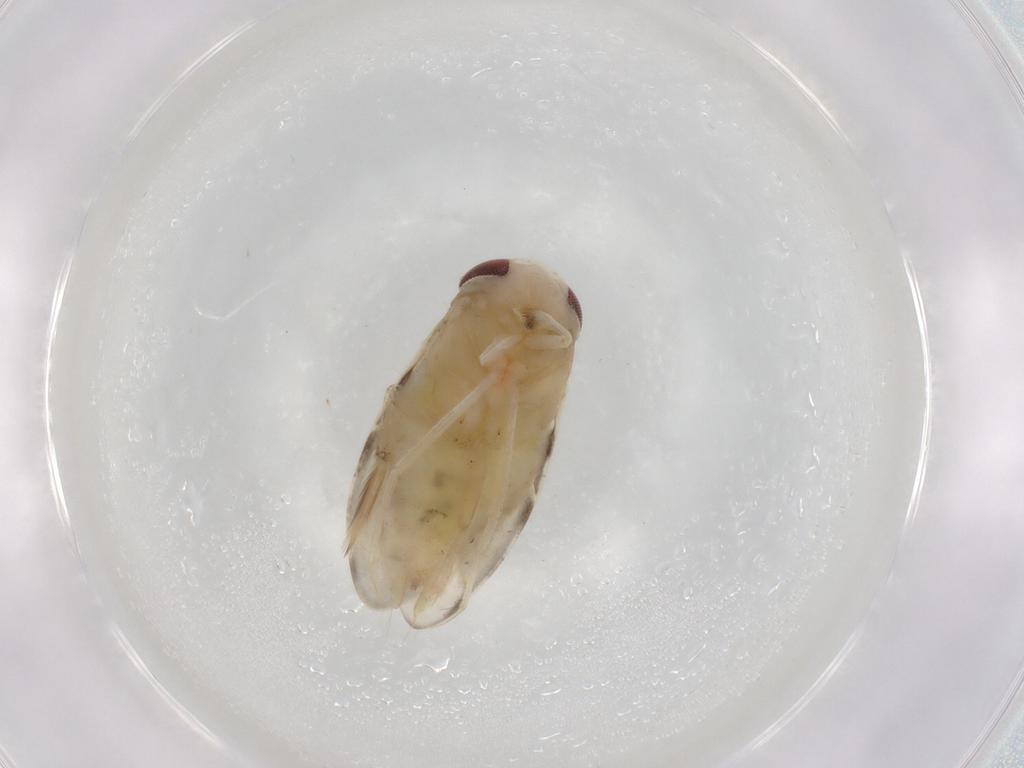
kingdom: Animalia
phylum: Arthropoda
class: Insecta
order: Hemiptera
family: Corixidae
